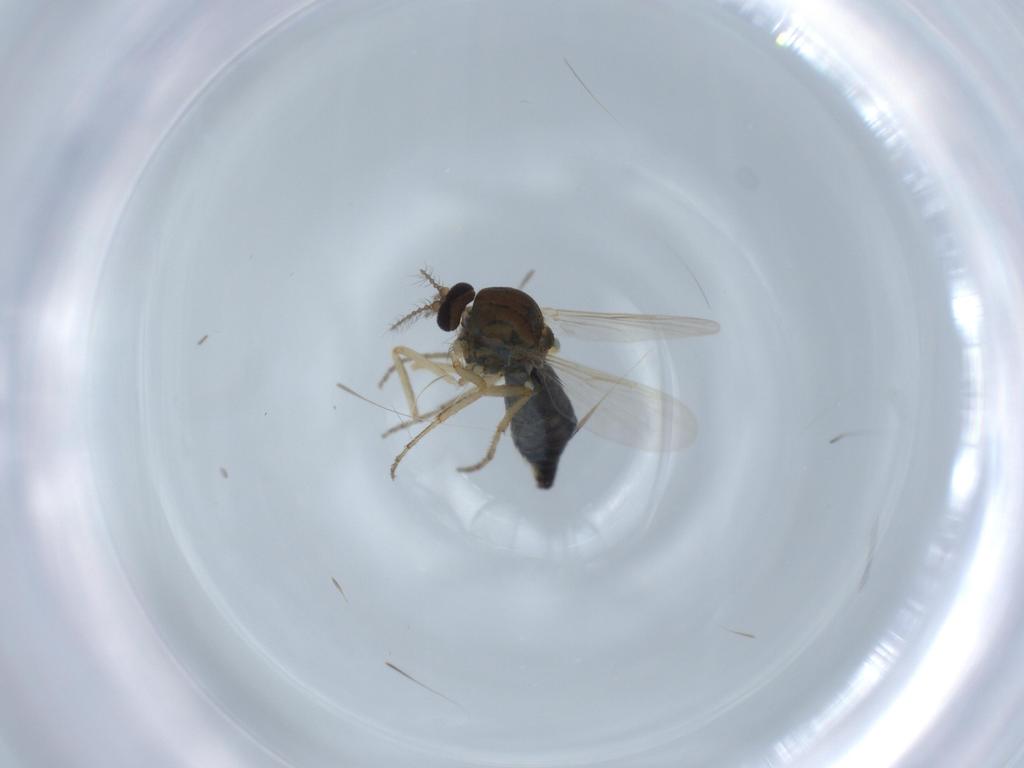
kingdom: Animalia
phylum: Arthropoda
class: Insecta
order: Diptera
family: Ceratopogonidae
